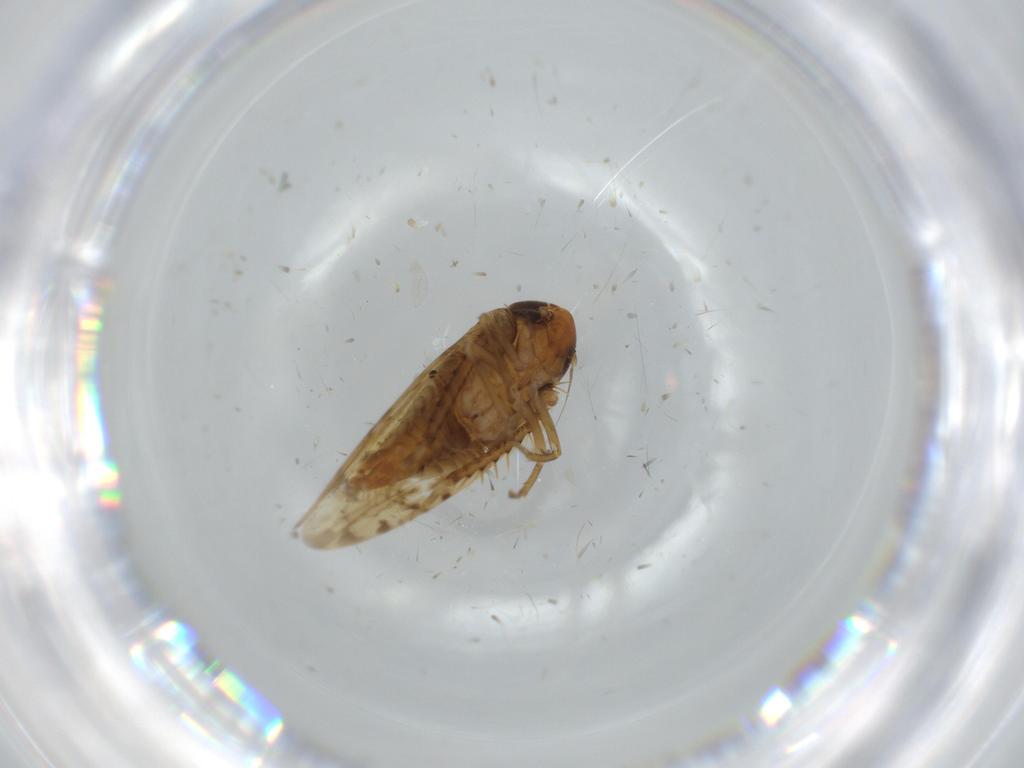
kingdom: Animalia
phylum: Arthropoda
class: Insecta
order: Hemiptera
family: Cicadellidae
